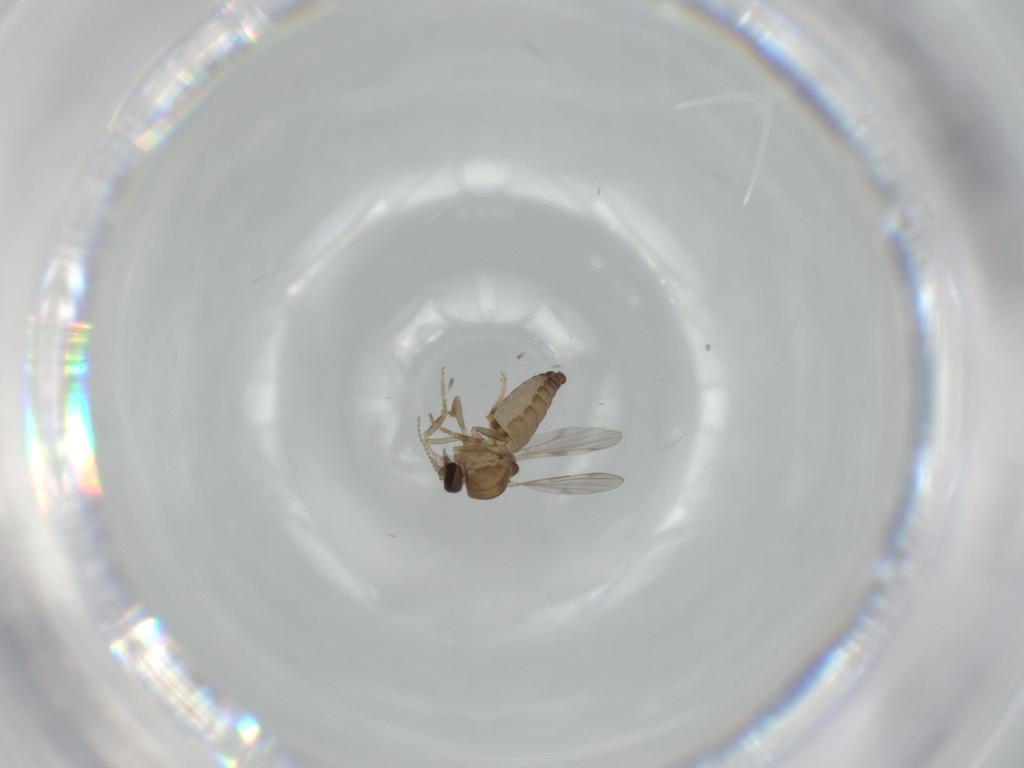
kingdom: Animalia
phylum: Arthropoda
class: Insecta
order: Diptera
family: Ceratopogonidae
